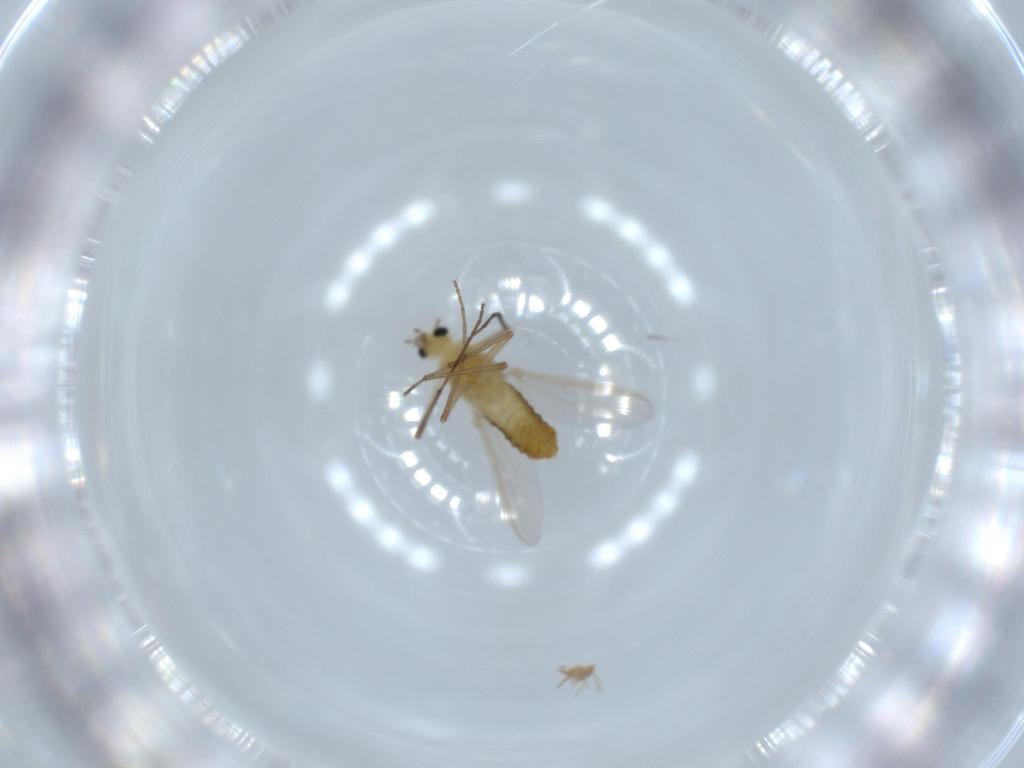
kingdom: Animalia
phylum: Arthropoda
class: Insecta
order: Diptera
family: Chironomidae
